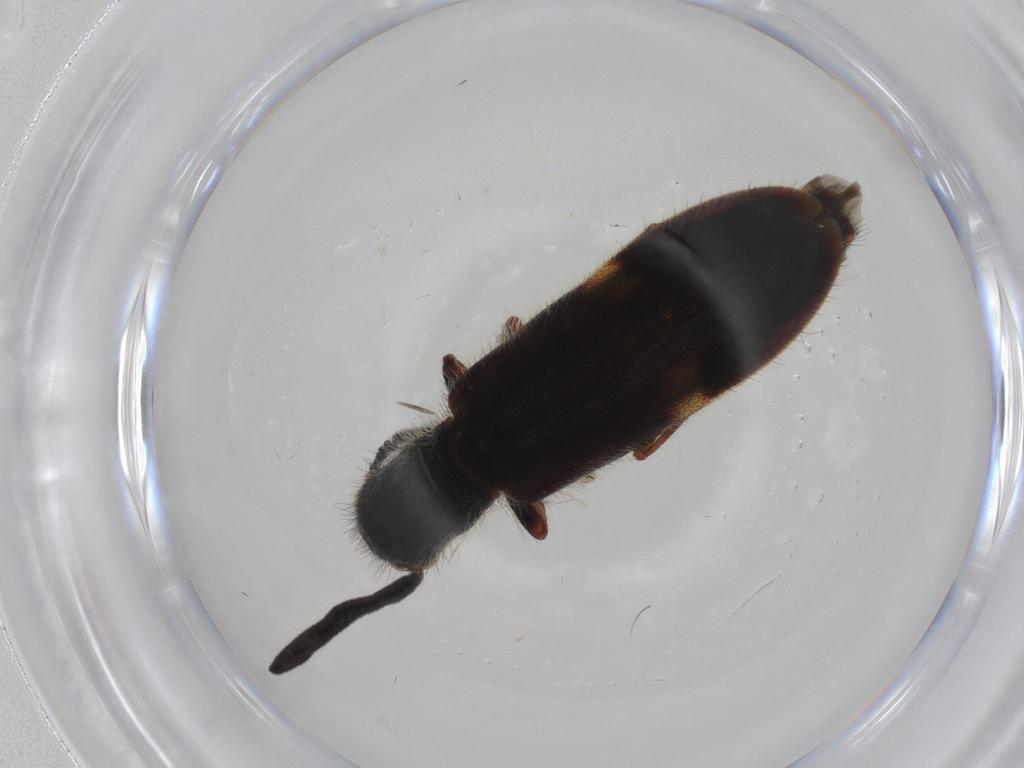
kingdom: Animalia
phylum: Arthropoda
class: Insecta
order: Coleoptera
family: Cleridae
